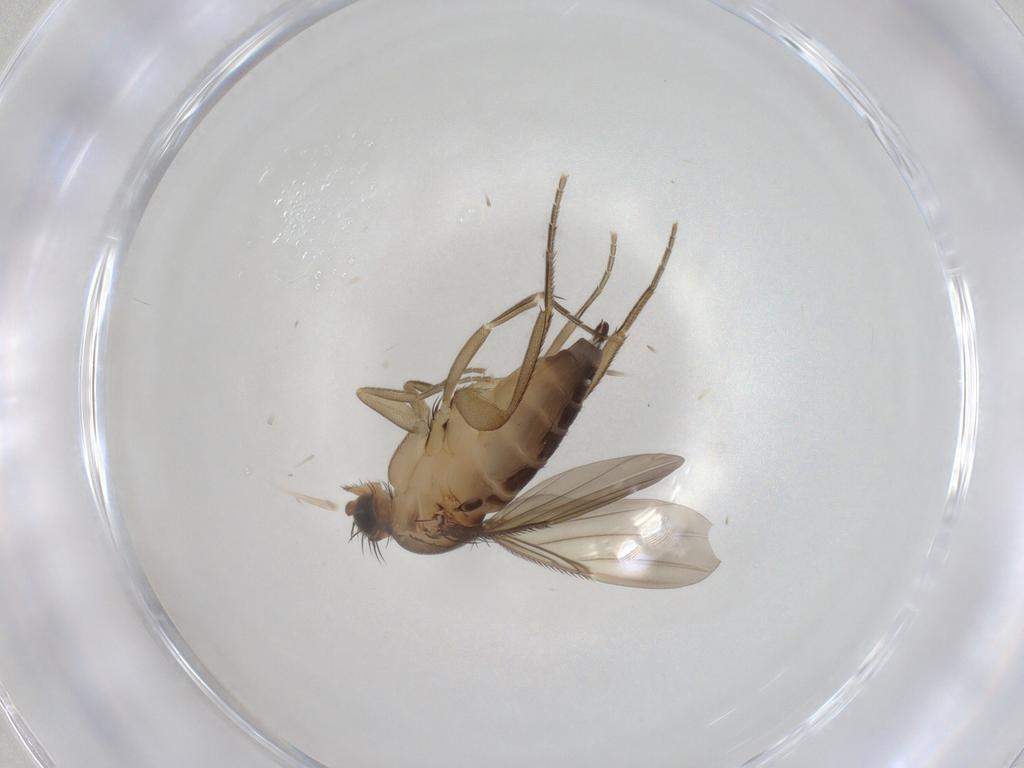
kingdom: Animalia
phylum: Arthropoda
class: Insecta
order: Diptera
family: Phoridae
